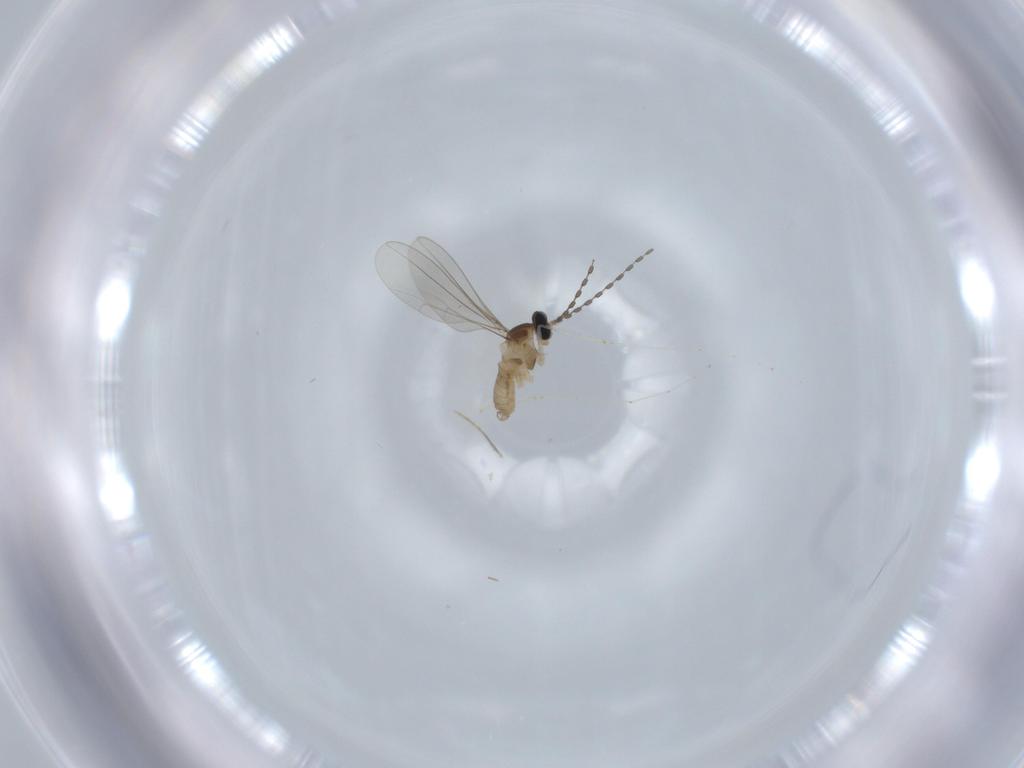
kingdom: Animalia
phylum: Arthropoda
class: Insecta
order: Diptera
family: Cecidomyiidae
